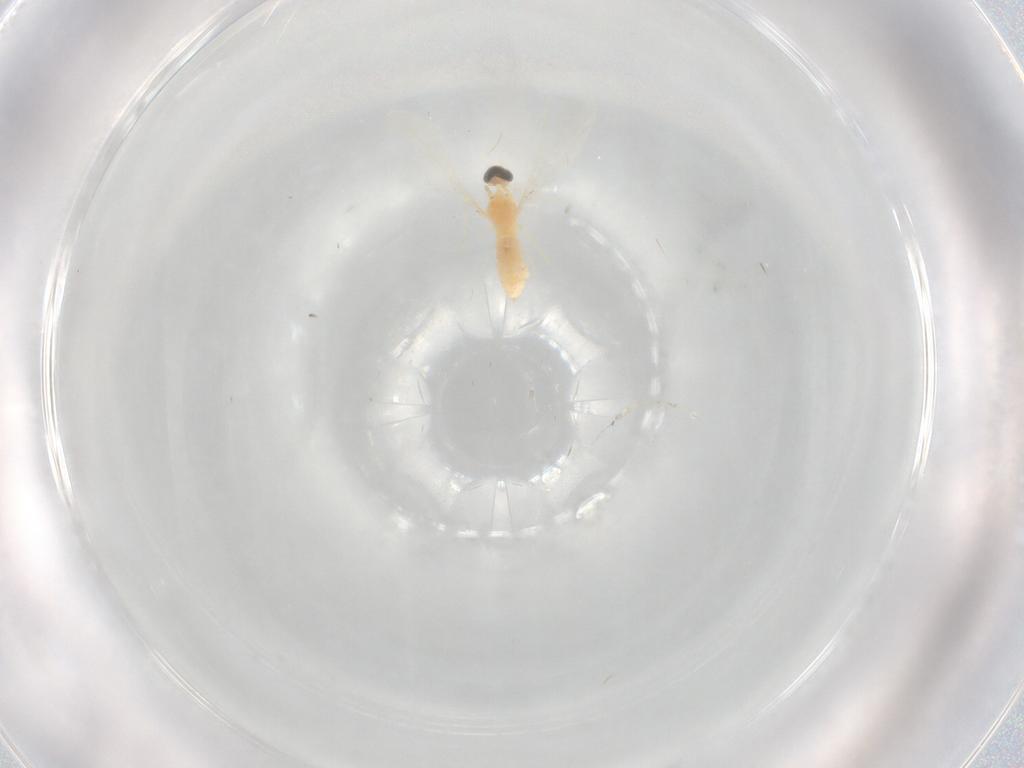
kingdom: Animalia
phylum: Arthropoda
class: Insecta
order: Diptera
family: Cecidomyiidae
